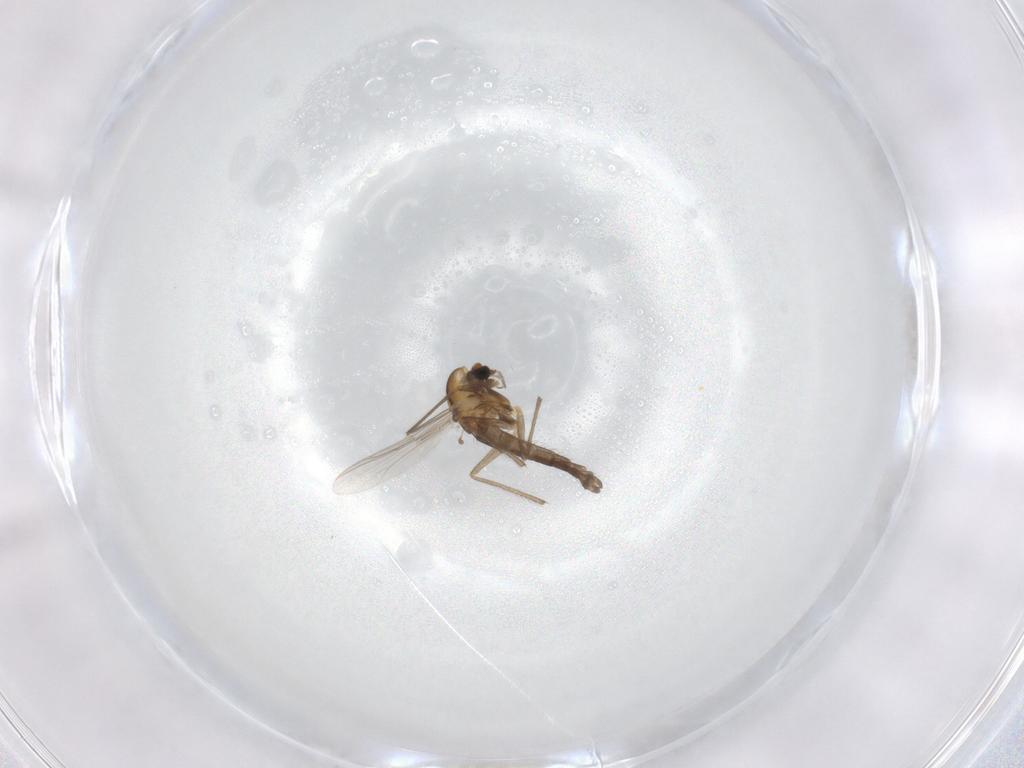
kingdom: Animalia
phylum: Arthropoda
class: Insecta
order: Diptera
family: Chironomidae
